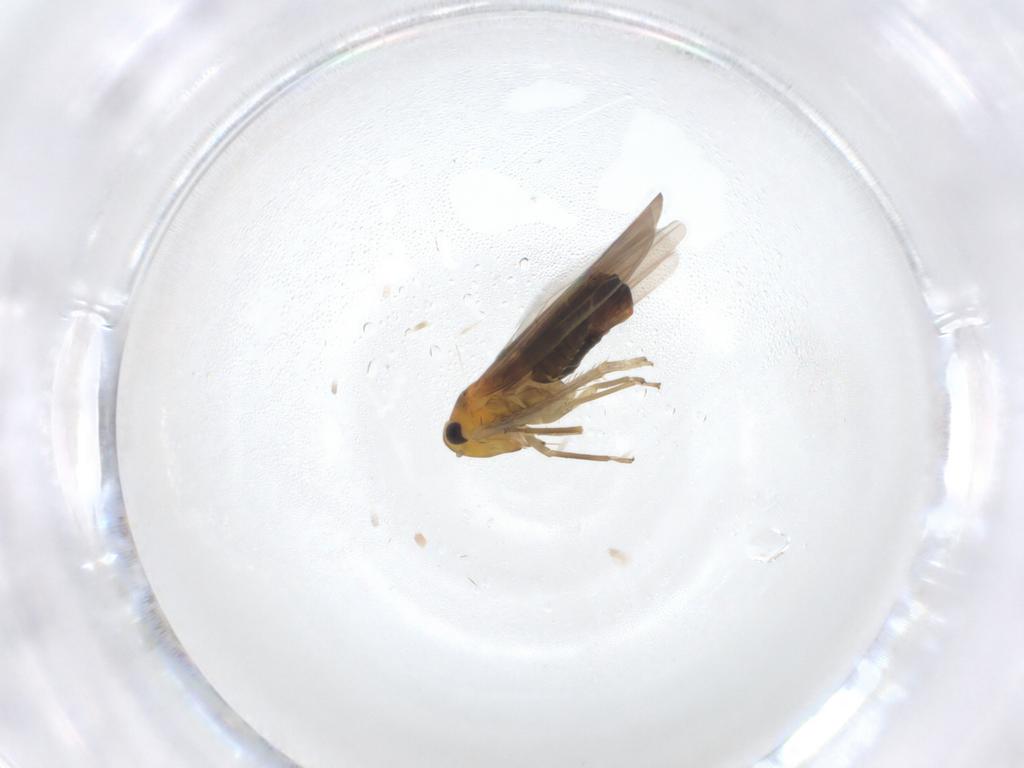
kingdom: Animalia
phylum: Arthropoda
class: Insecta
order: Hemiptera
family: Cicadellidae
